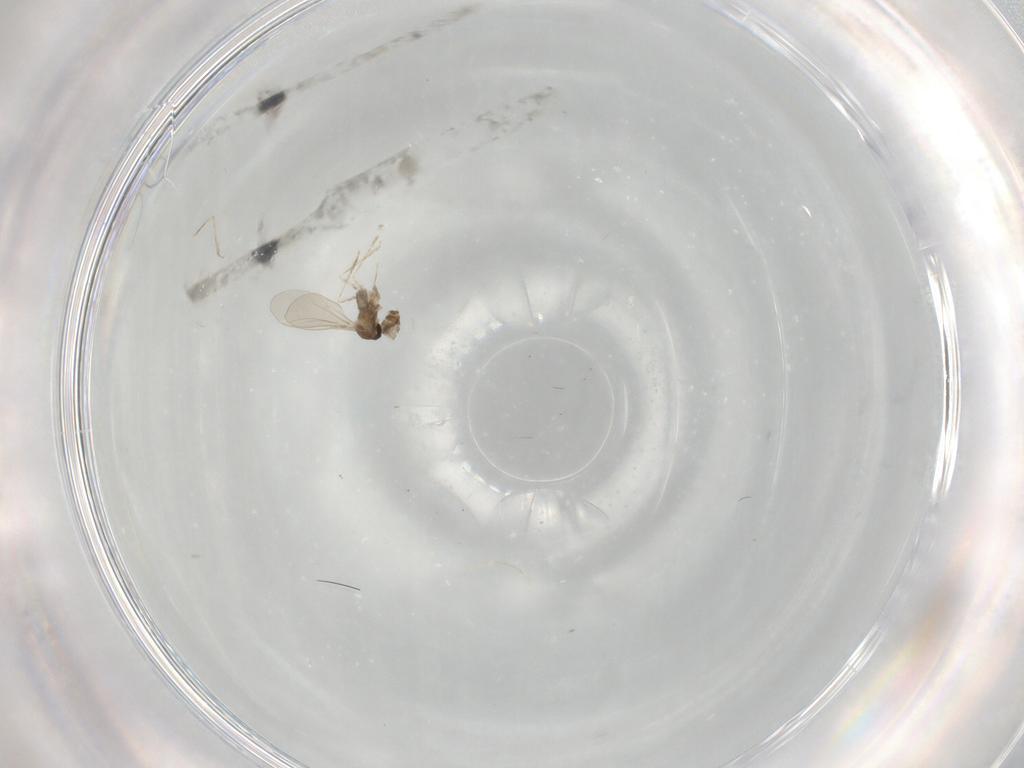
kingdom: Animalia
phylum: Arthropoda
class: Insecta
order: Diptera
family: Cecidomyiidae
